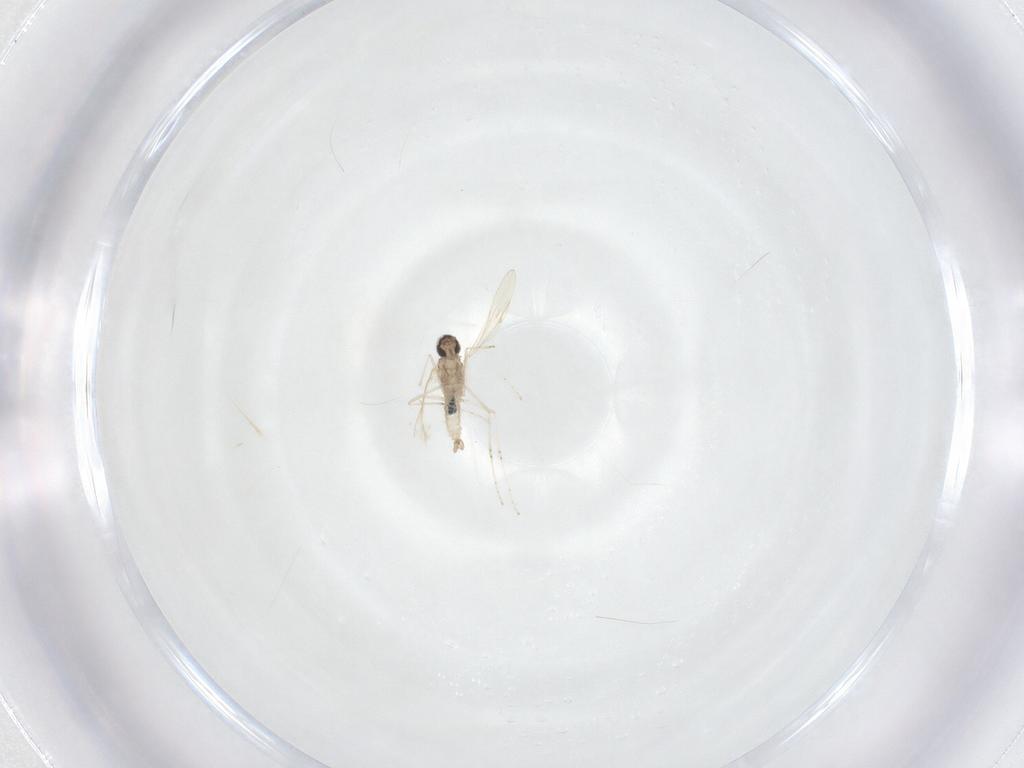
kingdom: Animalia
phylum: Arthropoda
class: Insecta
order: Diptera
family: Cecidomyiidae
